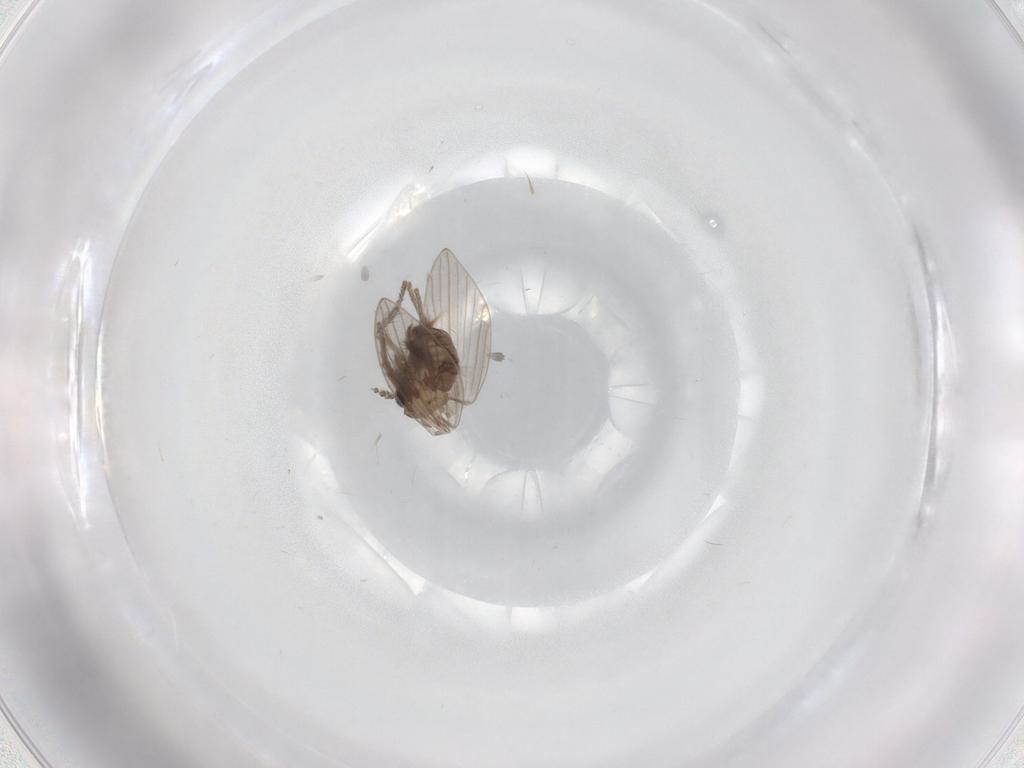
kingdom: Animalia
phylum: Arthropoda
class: Insecta
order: Diptera
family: Psychodidae
